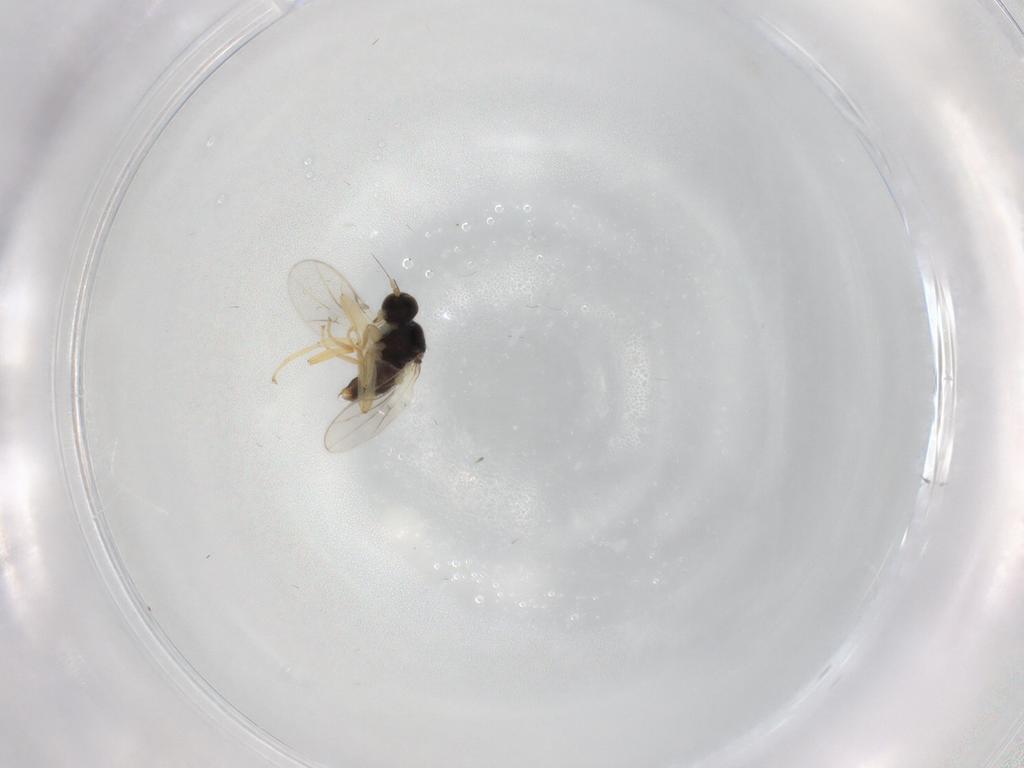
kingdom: Animalia
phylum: Arthropoda
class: Insecta
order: Diptera
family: Hybotidae
